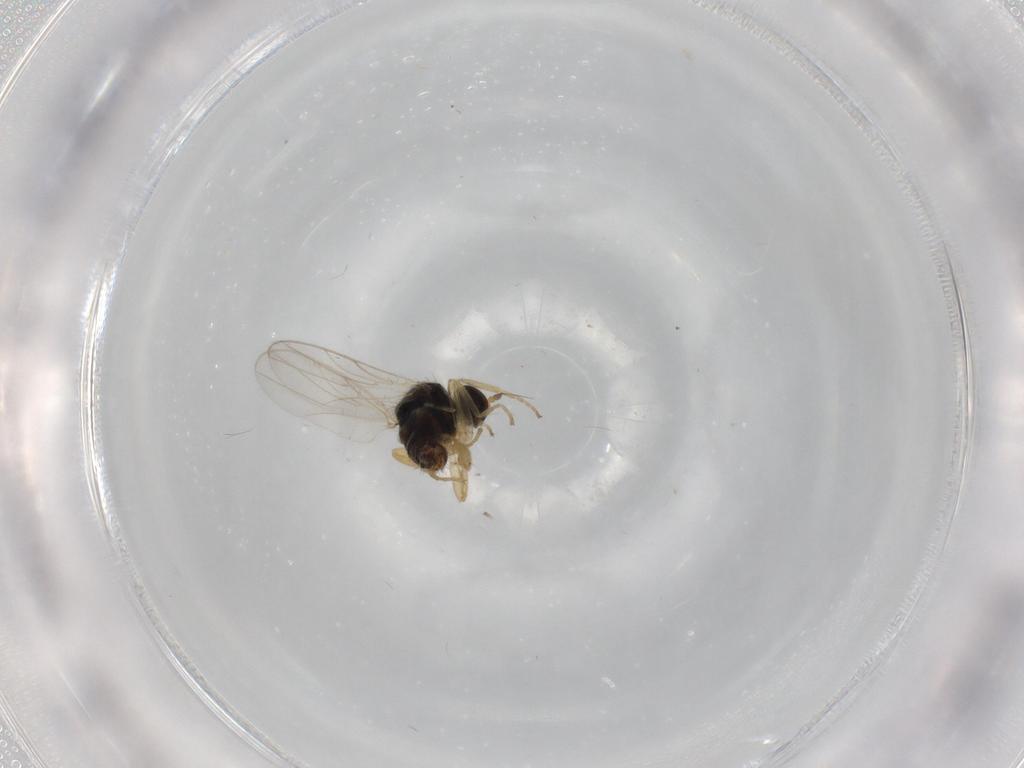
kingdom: Animalia
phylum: Arthropoda
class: Insecta
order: Diptera
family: Hybotidae
